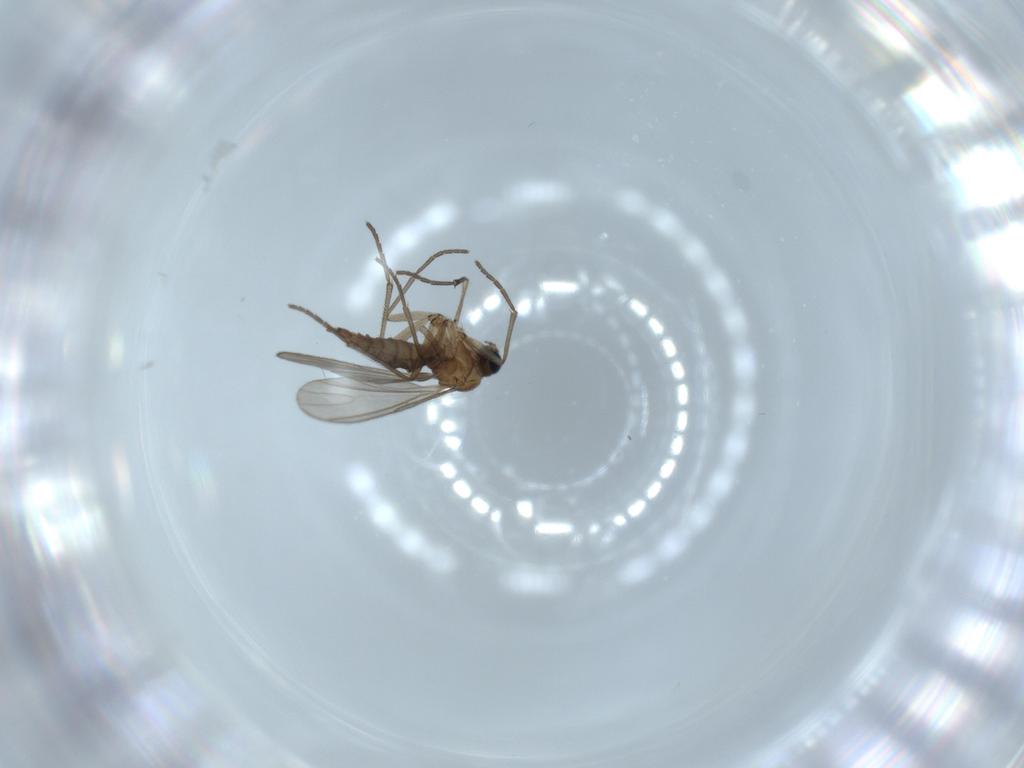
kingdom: Animalia
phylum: Arthropoda
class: Insecta
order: Diptera
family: Sciaridae
